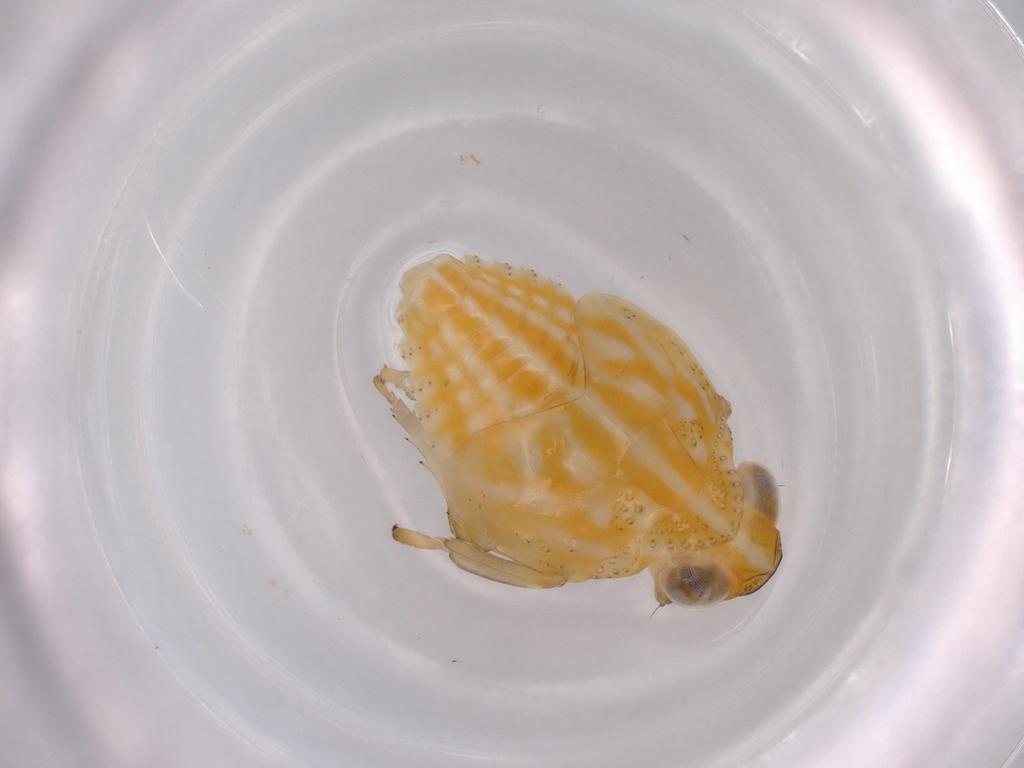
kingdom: Animalia
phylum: Arthropoda
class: Insecta
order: Hemiptera
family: Issidae
